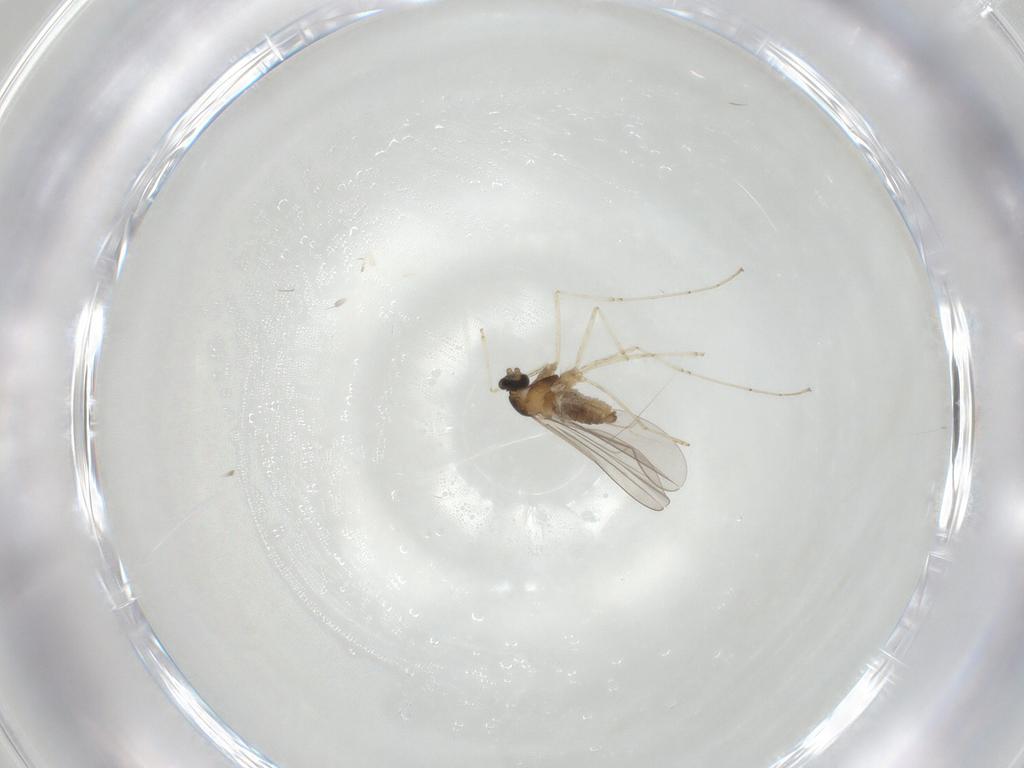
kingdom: Animalia
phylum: Arthropoda
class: Insecta
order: Diptera
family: Cecidomyiidae
